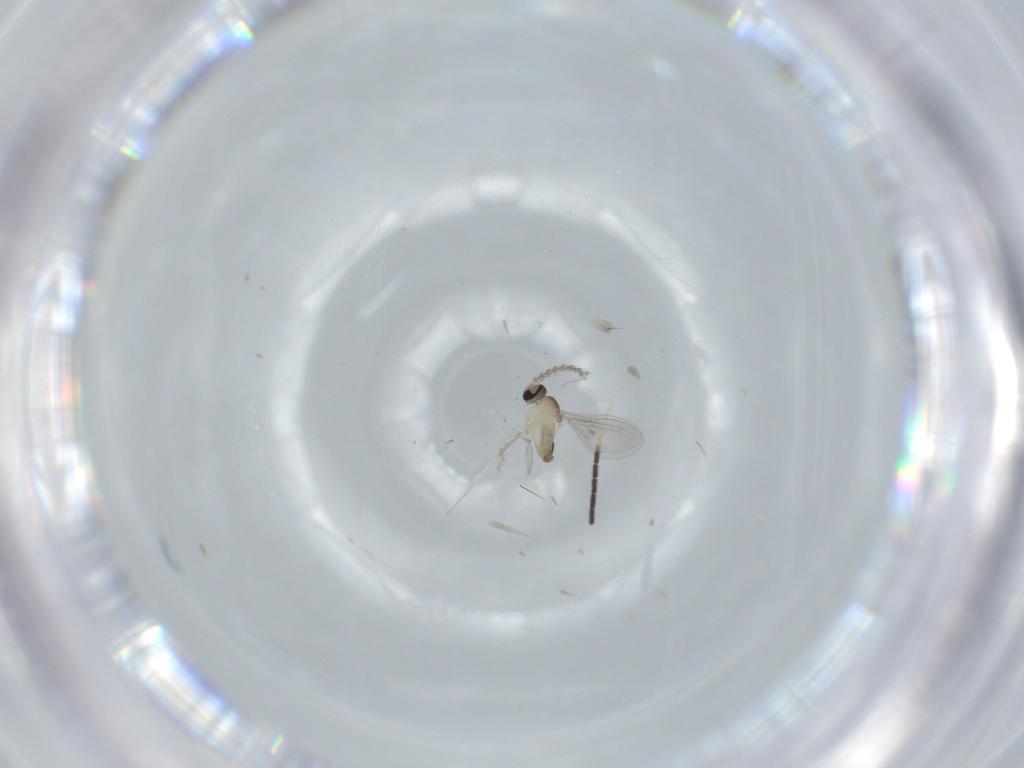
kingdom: Animalia
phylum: Arthropoda
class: Insecta
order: Diptera
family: Cecidomyiidae
